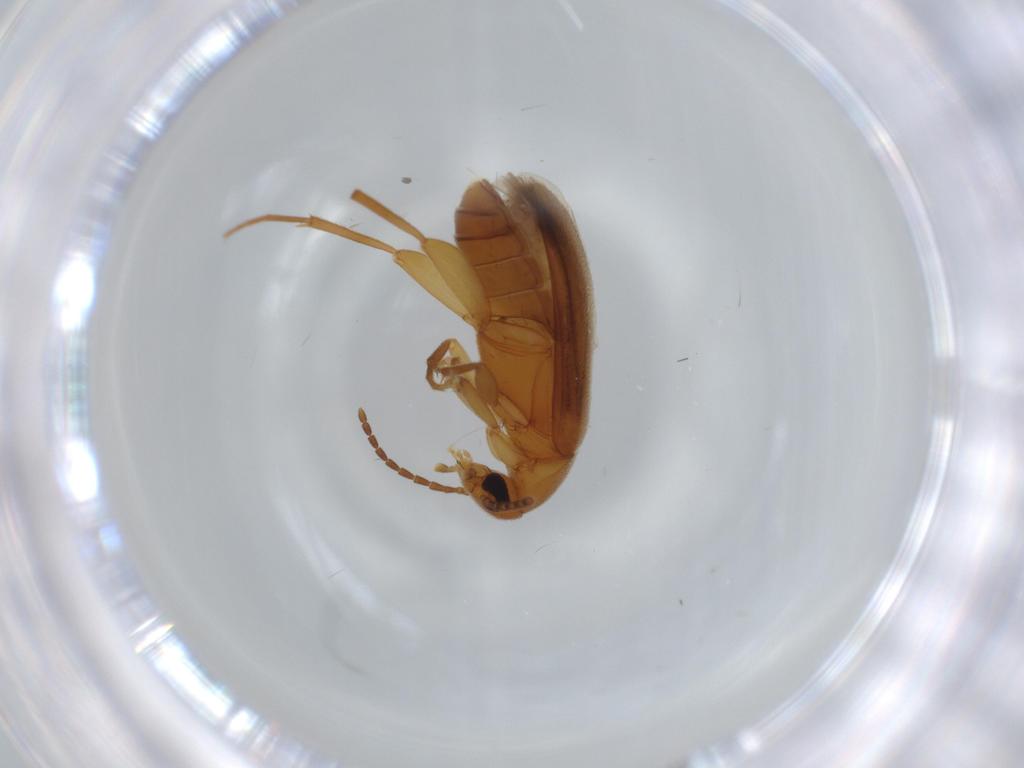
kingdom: Animalia
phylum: Arthropoda
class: Insecta
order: Coleoptera
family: Scraptiidae
